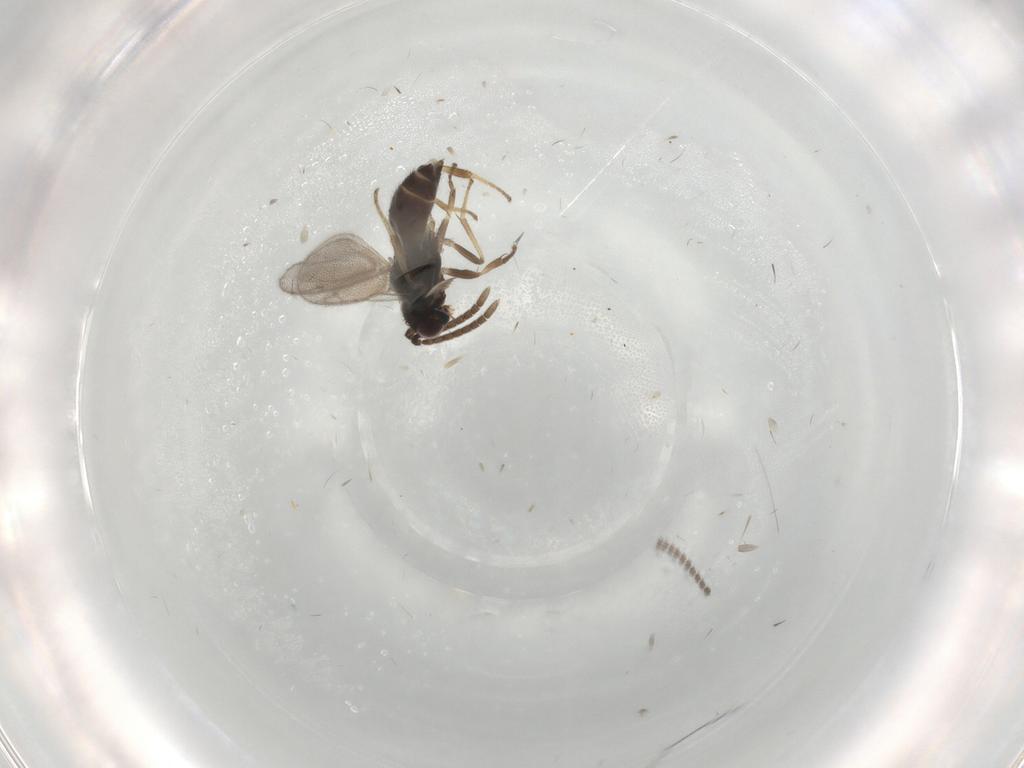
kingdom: Animalia
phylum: Arthropoda
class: Insecta
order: Hymenoptera
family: Eupelmidae
